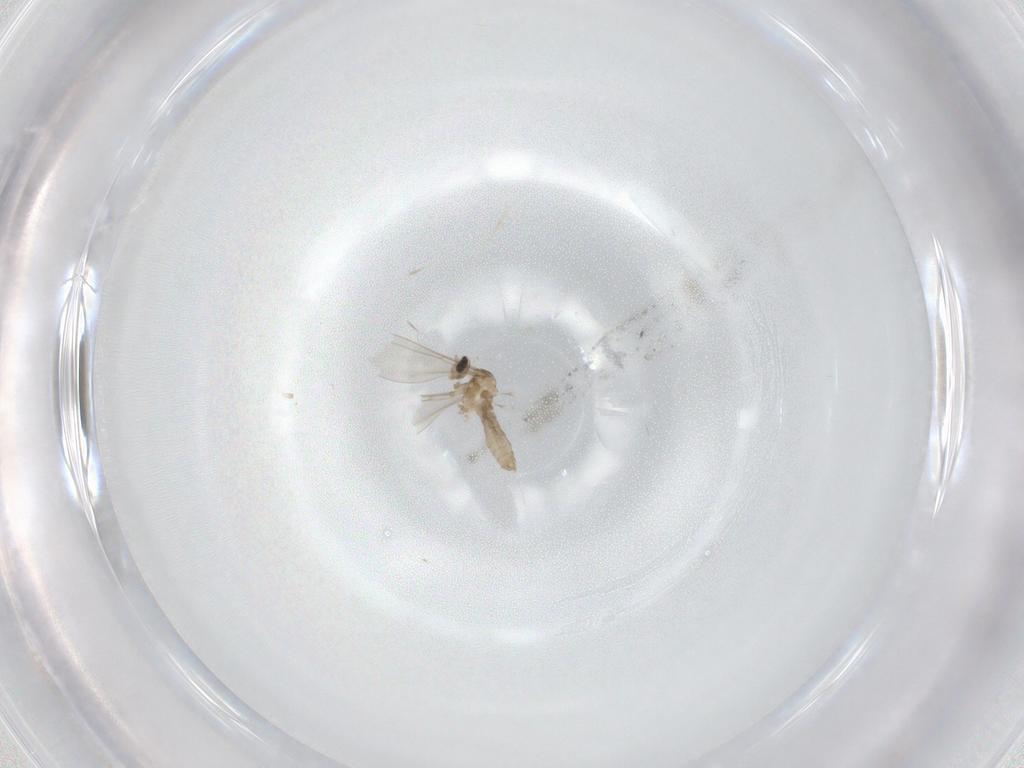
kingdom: Animalia
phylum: Arthropoda
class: Insecta
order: Diptera
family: Cecidomyiidae
